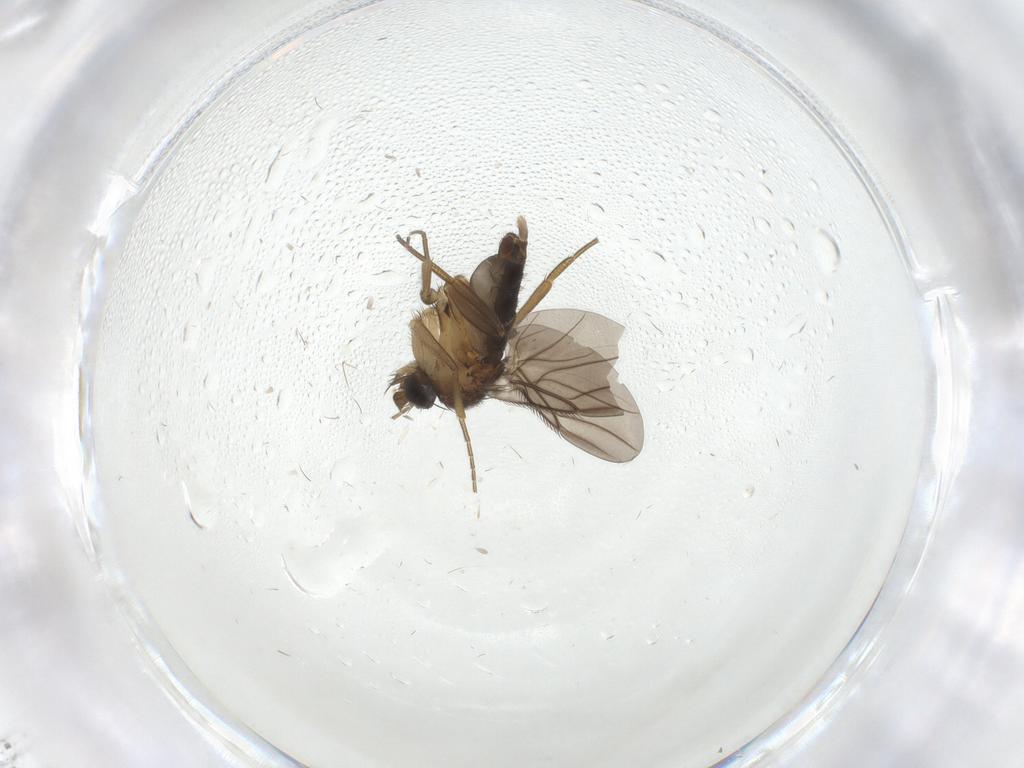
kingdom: Animalia
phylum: Arthropoda
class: Insecta
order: Diptera
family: Phoridae
